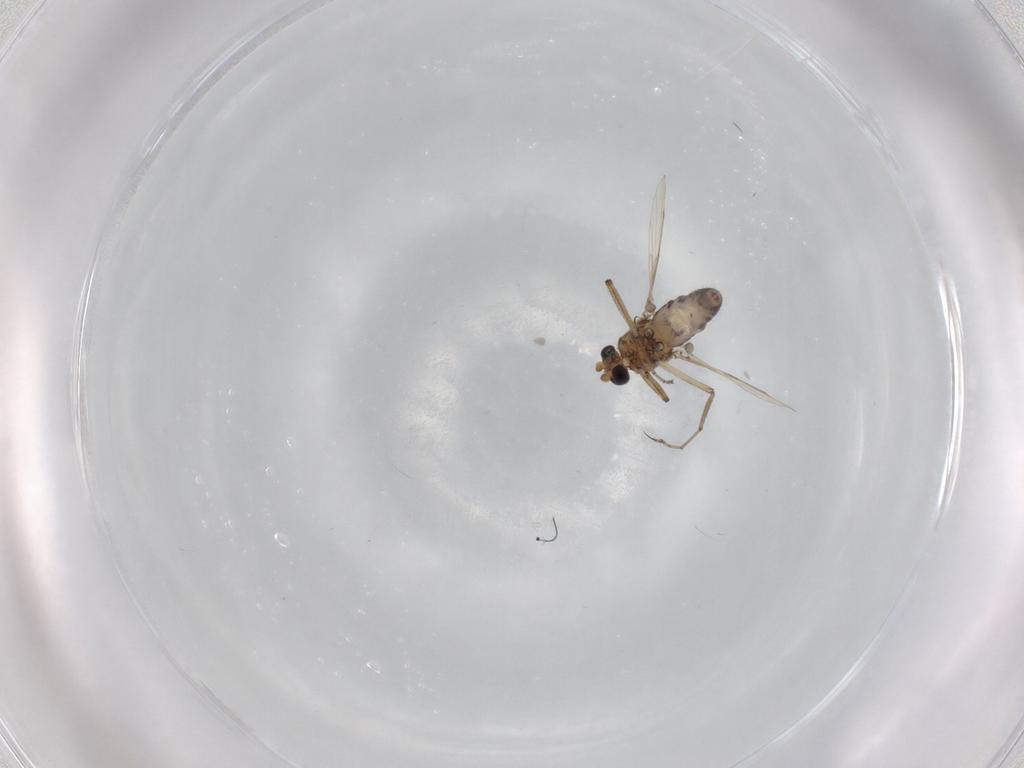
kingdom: Animalia
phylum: Arthropoda
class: Insecta
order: Diptera
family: Ceratopogonidae
